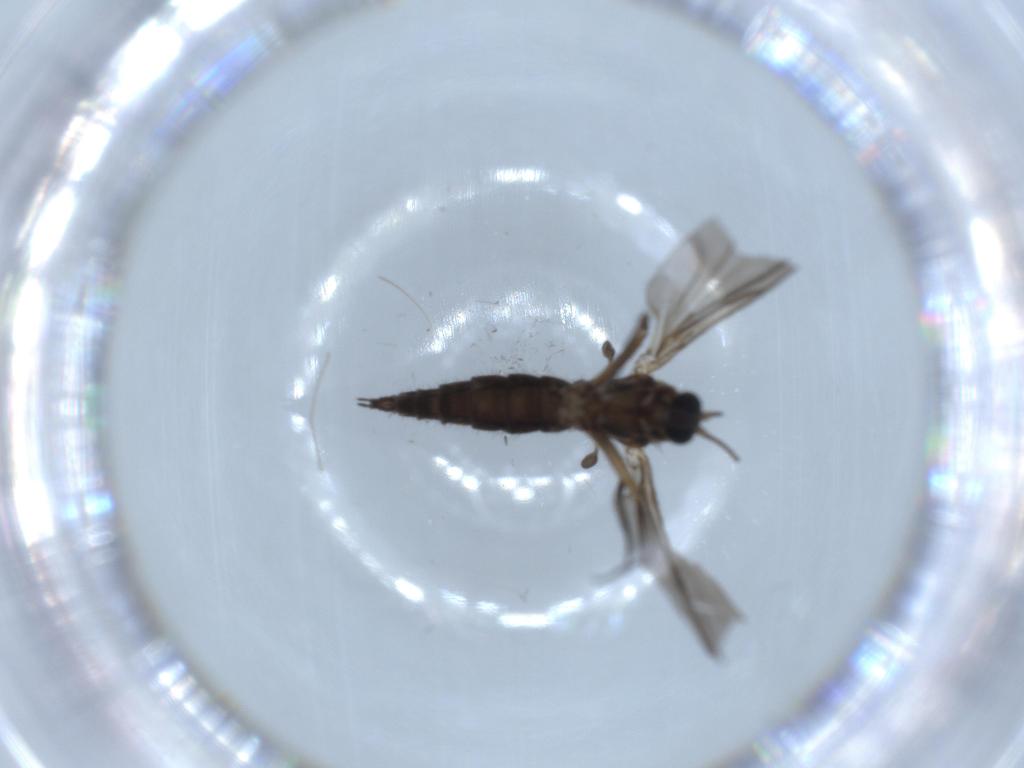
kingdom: Animalia
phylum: Arthropoda
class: Insecta
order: Diptera
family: Sciaridae
